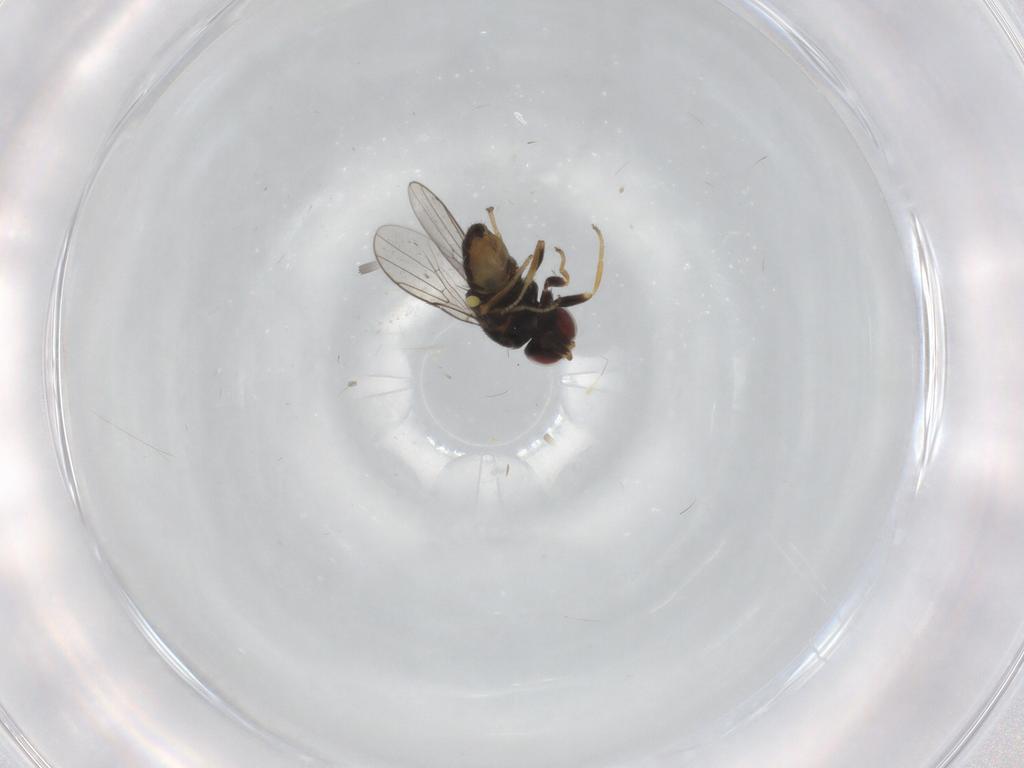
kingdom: Animalia
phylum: Arthropoda
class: Insecta
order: Diptera
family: Chloropidae
